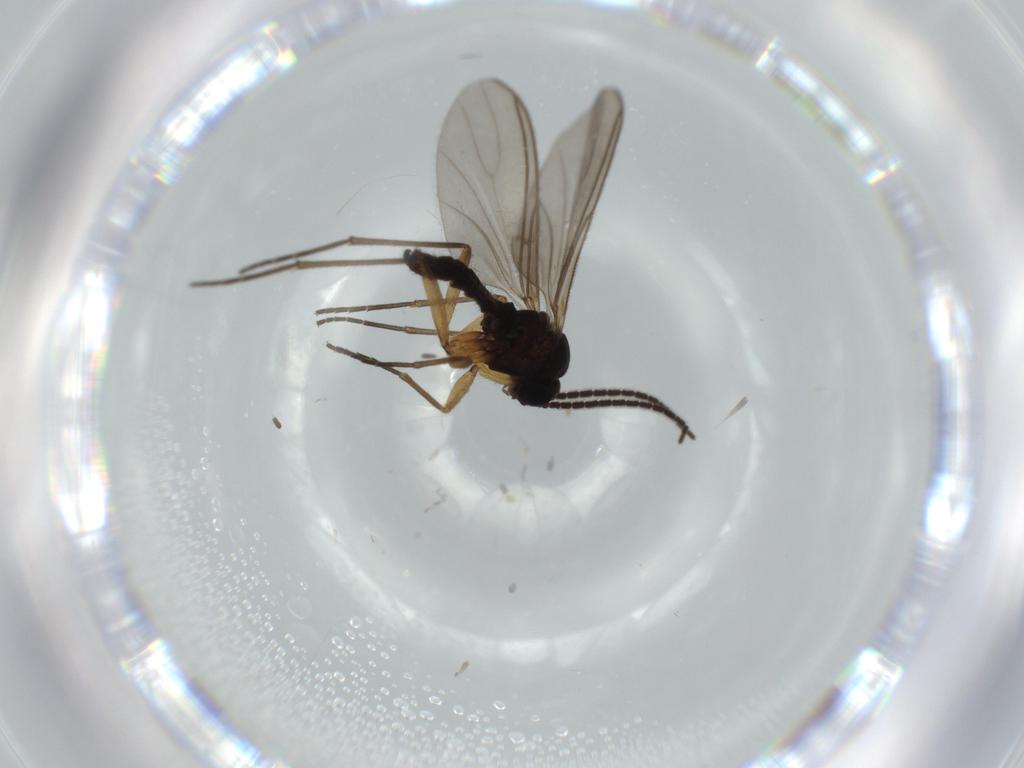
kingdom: Animalia
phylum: Arthropoda
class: Insecta
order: Diptera
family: Sciaridae
